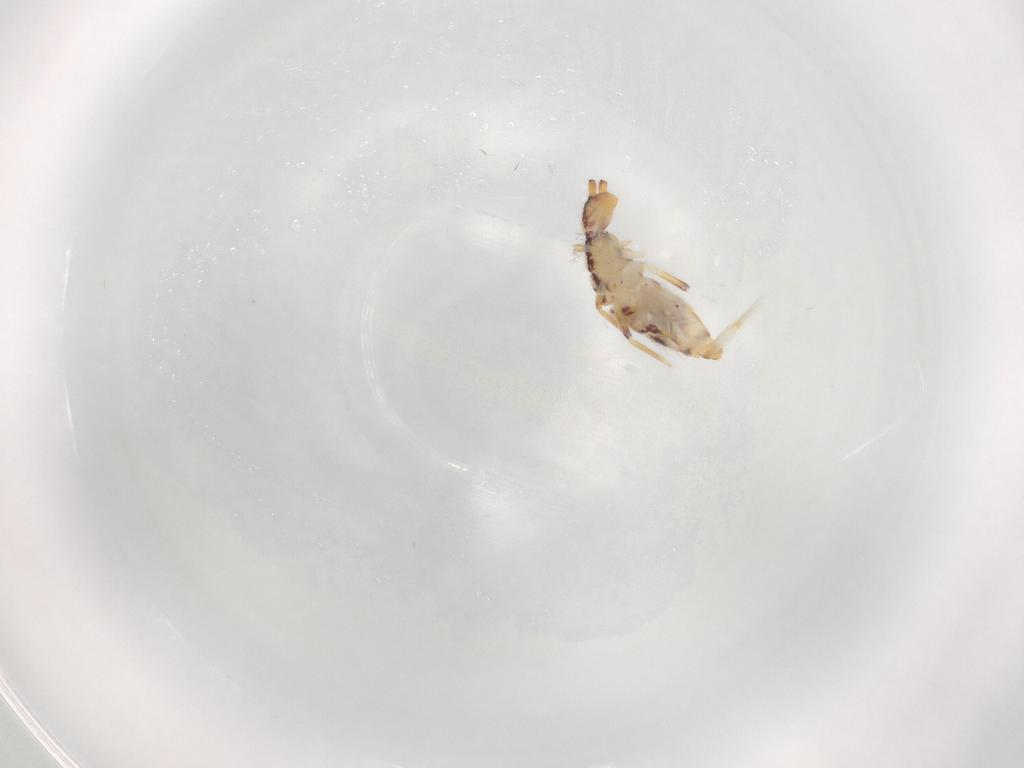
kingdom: Animalia
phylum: Arthropoda
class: Collembola
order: Entomobryomorpha
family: Entomobryidae
